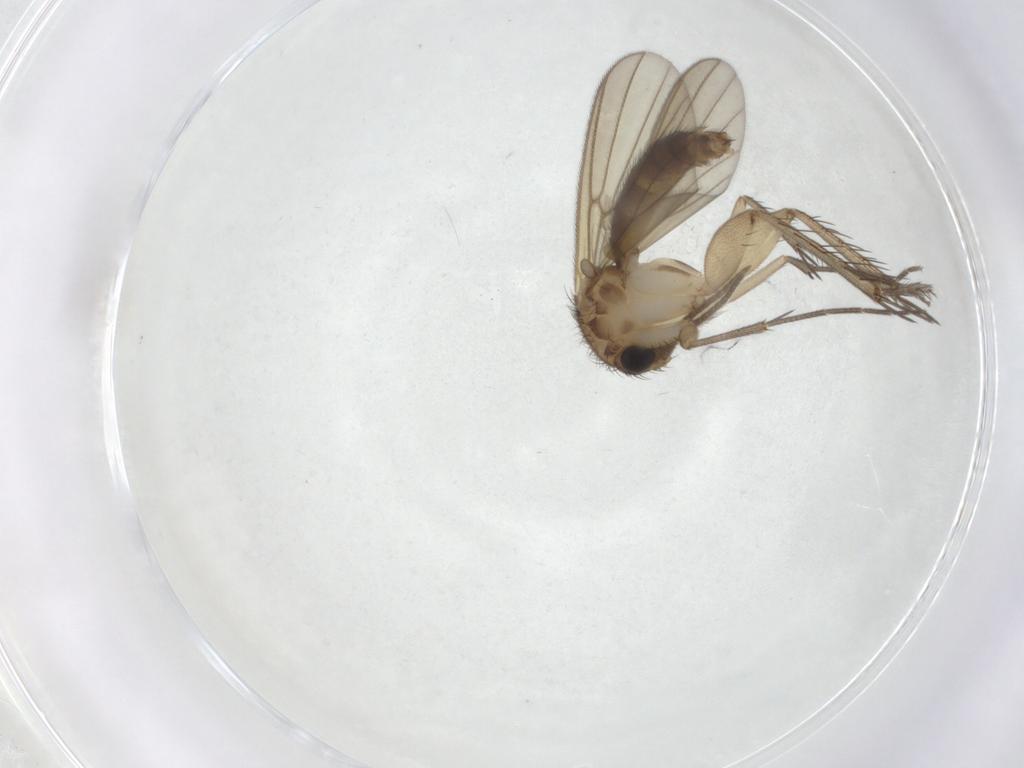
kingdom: Animalia
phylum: Arthropoda
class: Insecta
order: Diptera
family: Mycetophilidae
